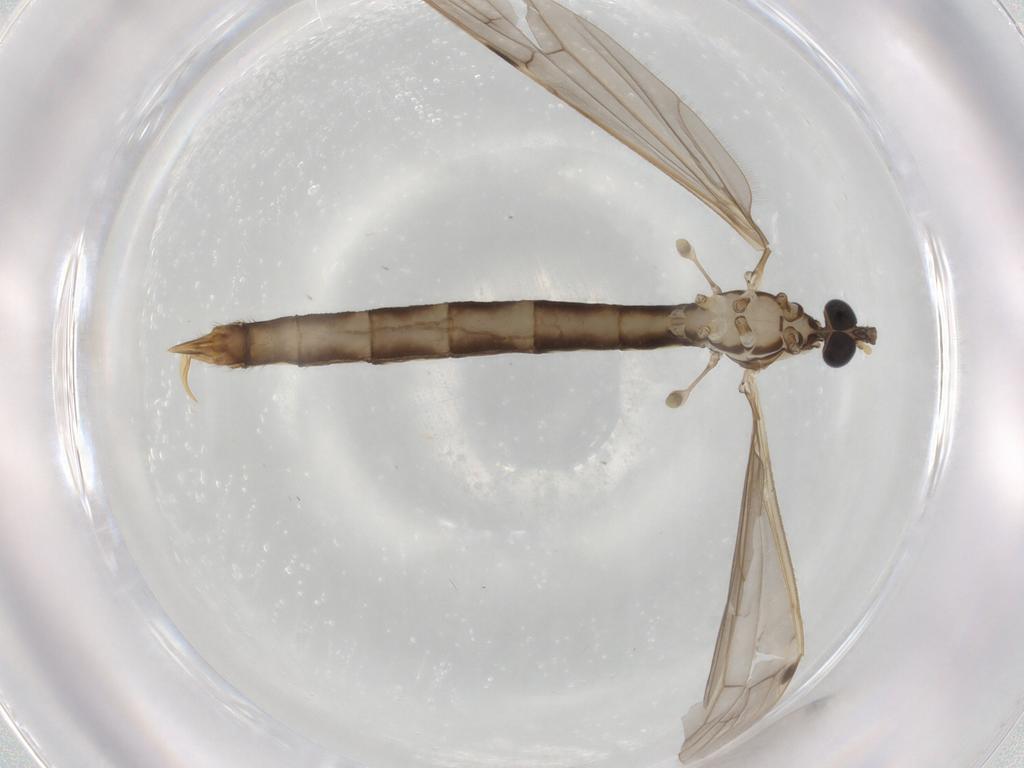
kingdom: Animalia
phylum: Arthropoda
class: Insecta
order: Diptera
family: Limoniidae
